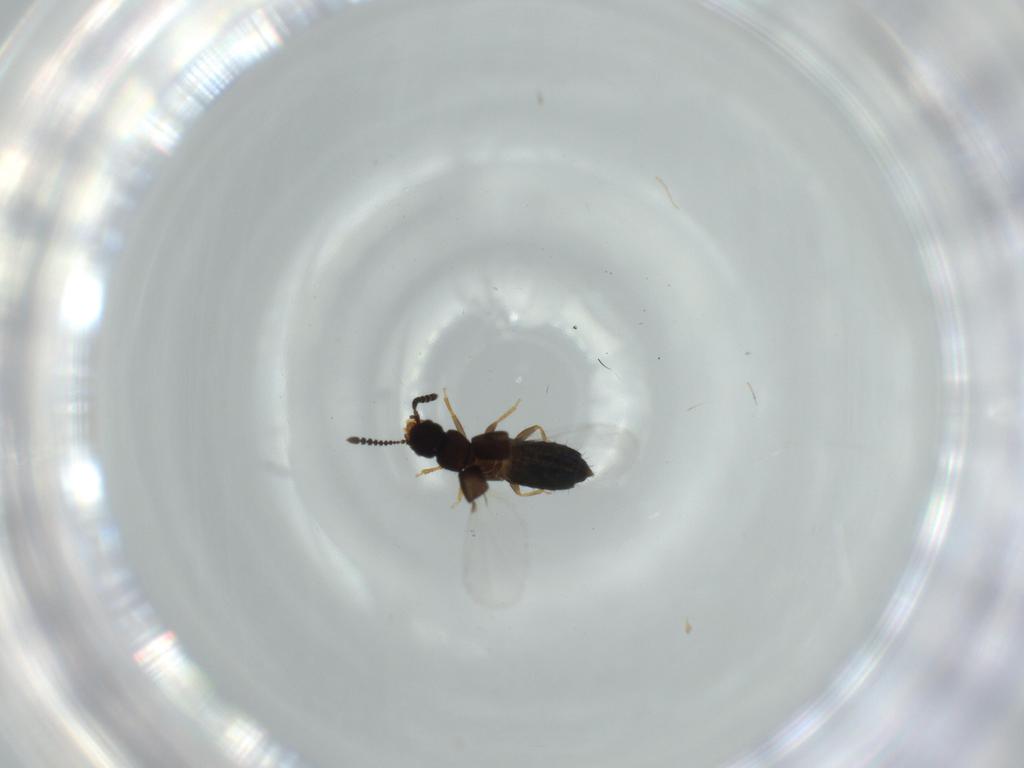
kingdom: Animalia
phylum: Arthropoda
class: Insecta
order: Coleoptera
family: Staphylinidae
